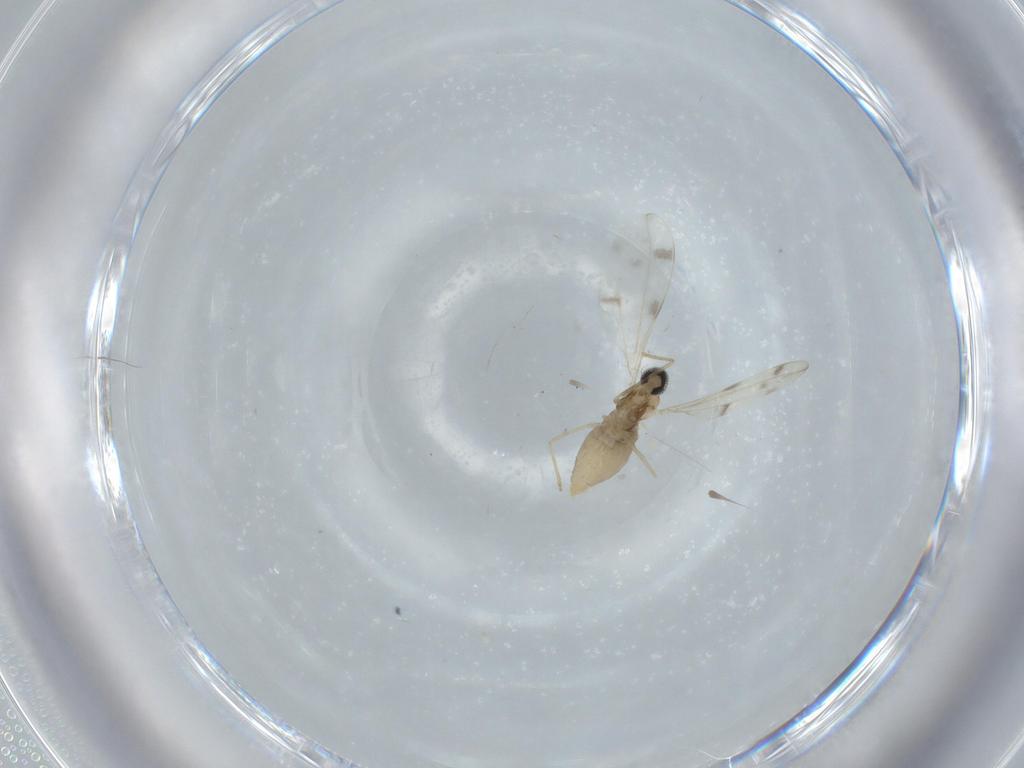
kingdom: Animalia
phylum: Arthropoda
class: Insecta
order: Diptera
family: Cecidomyiidae
